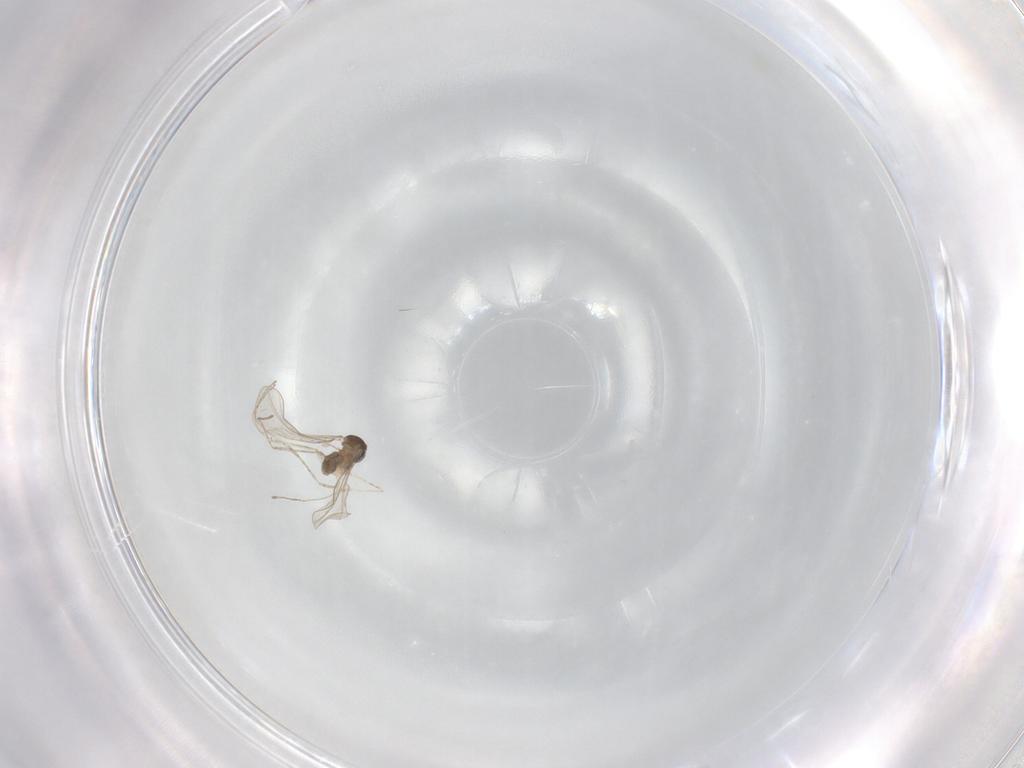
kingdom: Animalia
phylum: Arthropoda
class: Insecta
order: Diptera
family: Cecidomyiidae
